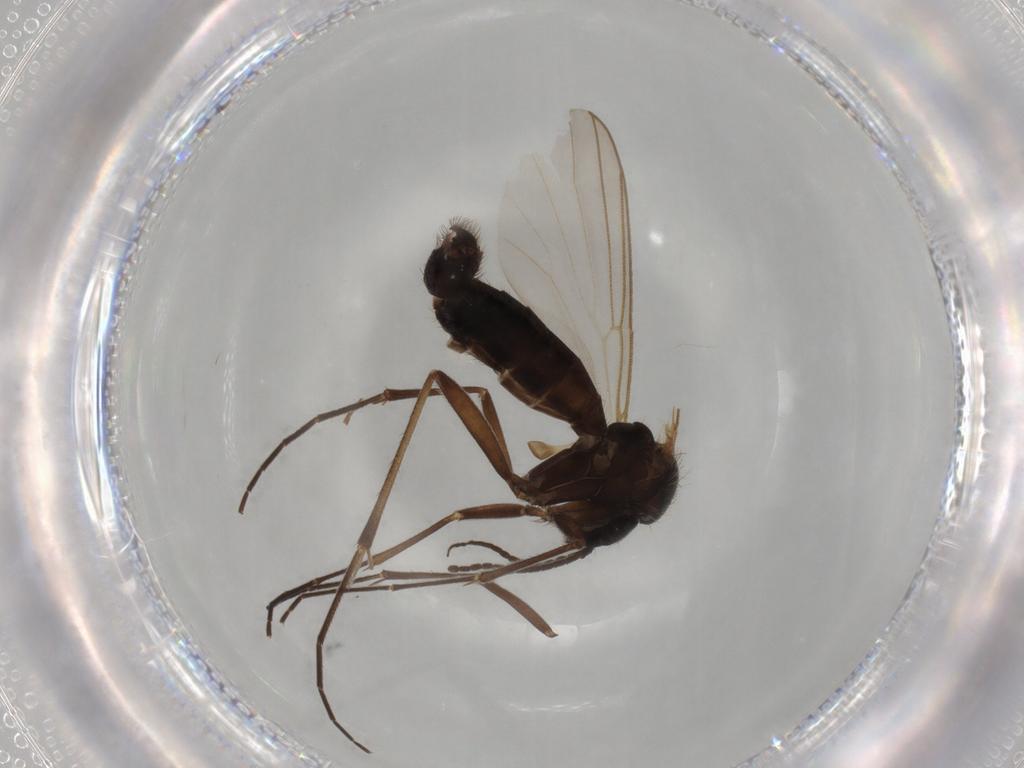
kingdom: Animalia
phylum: Arthropoda
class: Insecta
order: Diptera
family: Mycetophilidae
